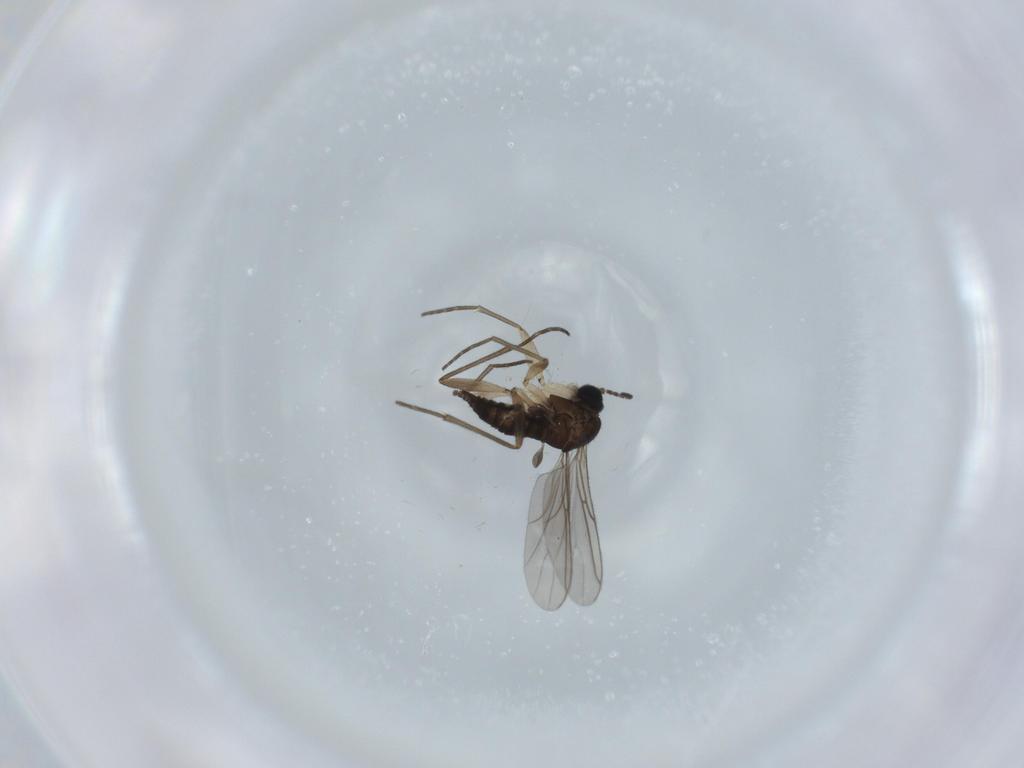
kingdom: Animalia
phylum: Arthropoda
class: Insecta
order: Diptera
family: Sciaridae
